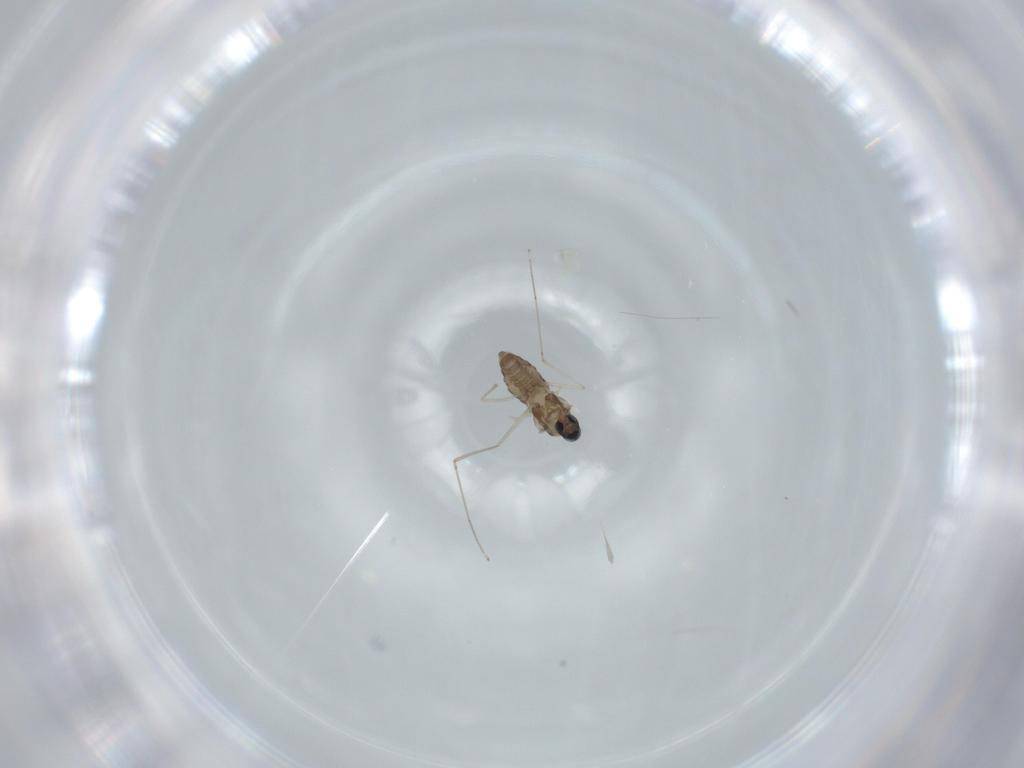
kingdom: Animalia
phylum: Arthropoda
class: Insecta
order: Diptera
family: Cecidomyiidae
